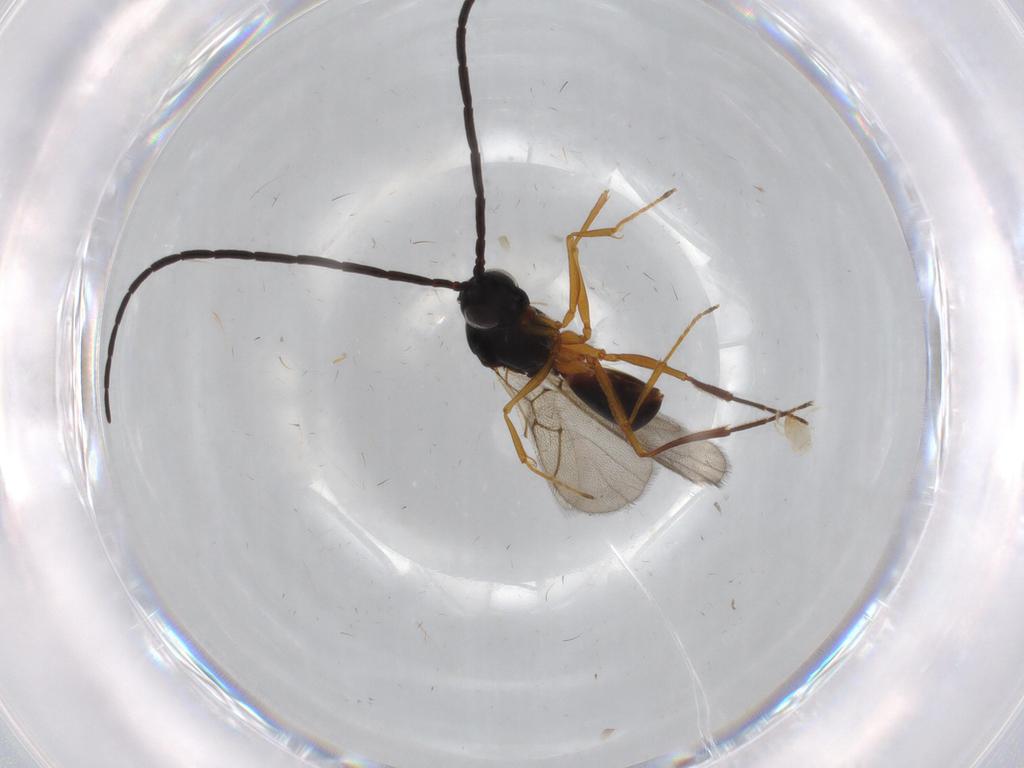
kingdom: Animalia
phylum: Arthropoda
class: Insecta
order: Hymenoptera
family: Figitidae
